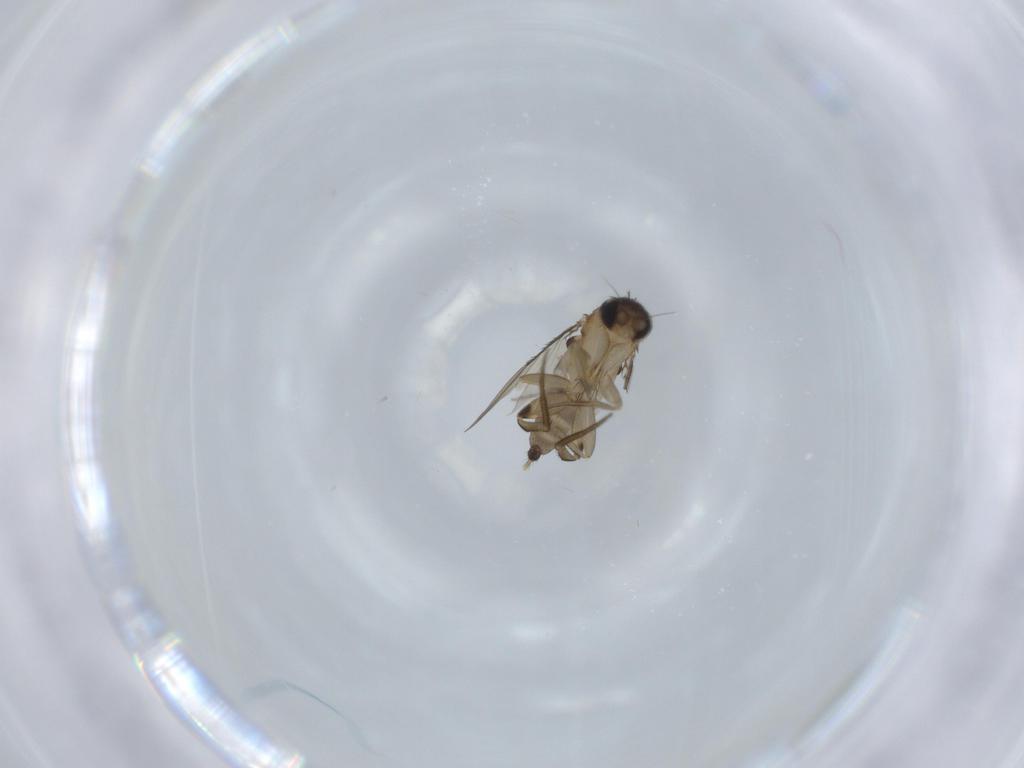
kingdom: Animalia
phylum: Arthropoda
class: Insecta
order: Diptera
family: Phoridae
